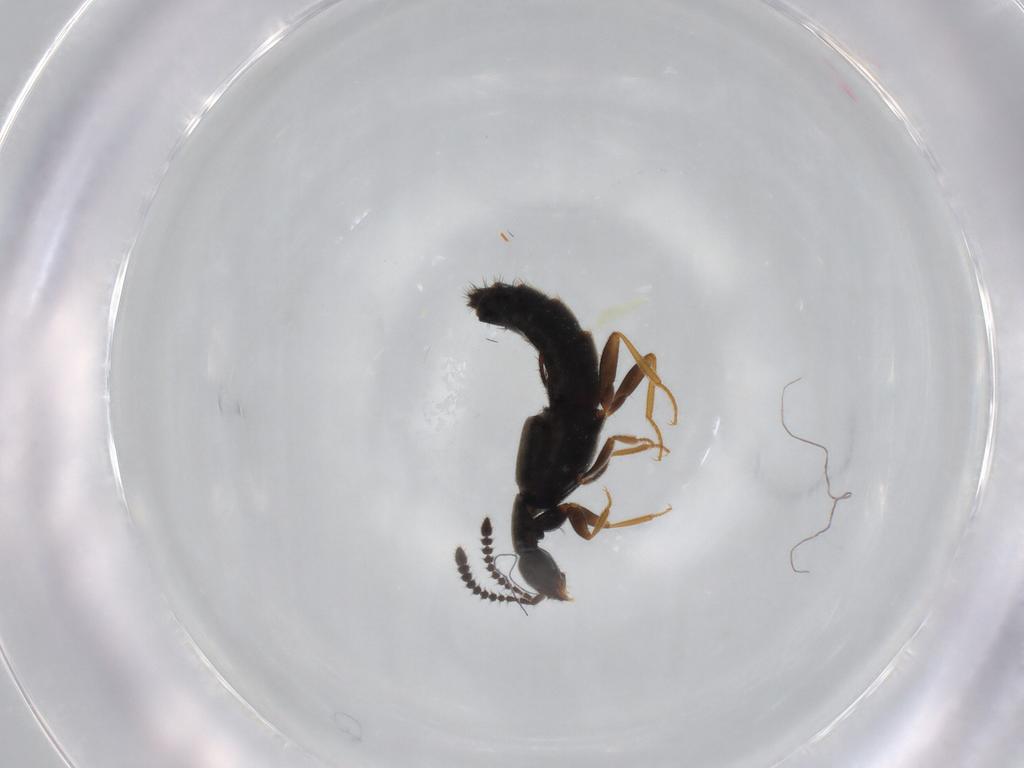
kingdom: Animalia
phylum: Arthropoda
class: Insecta
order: Coleoptera
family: Staphylinidae
